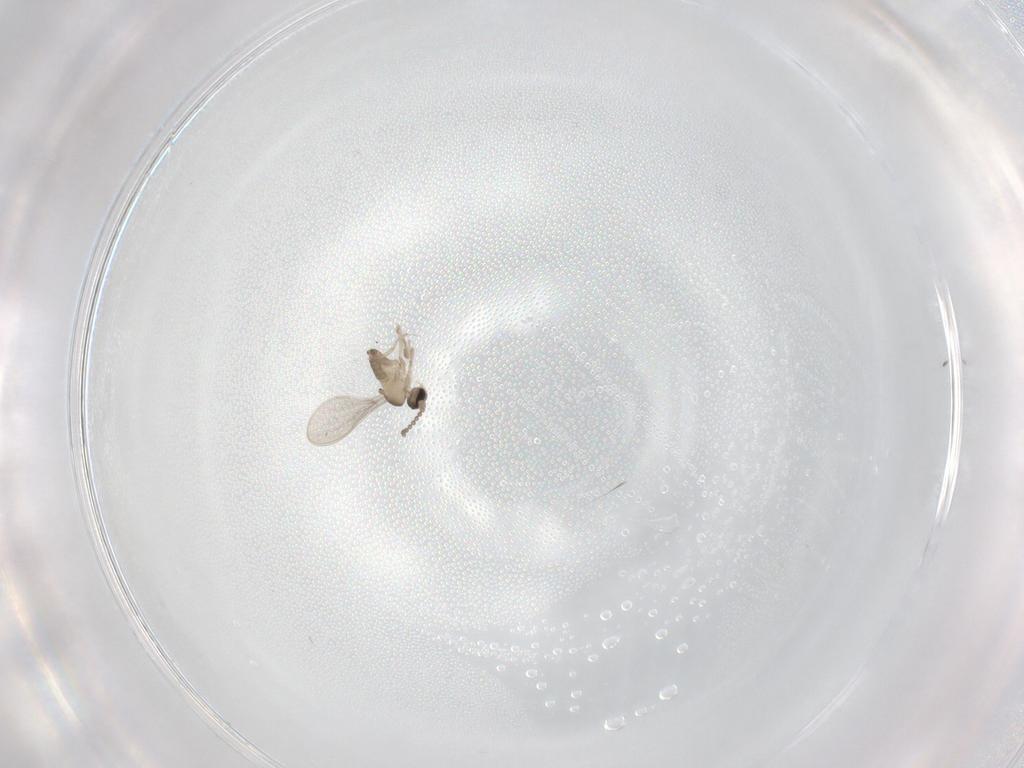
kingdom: Animalia
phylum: Arthropoda
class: Insecta
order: Diptera
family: Cecidomyiidae
